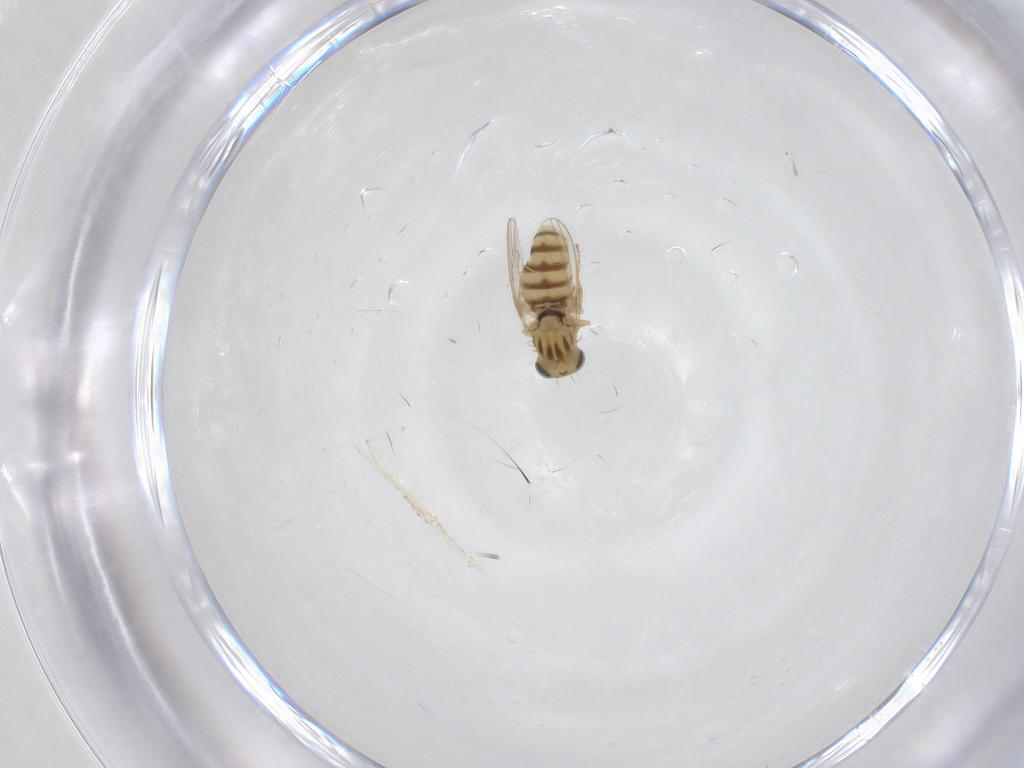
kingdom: Animalia
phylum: Arthropoda
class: Insecta
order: Diptera
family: Chyromyidae
